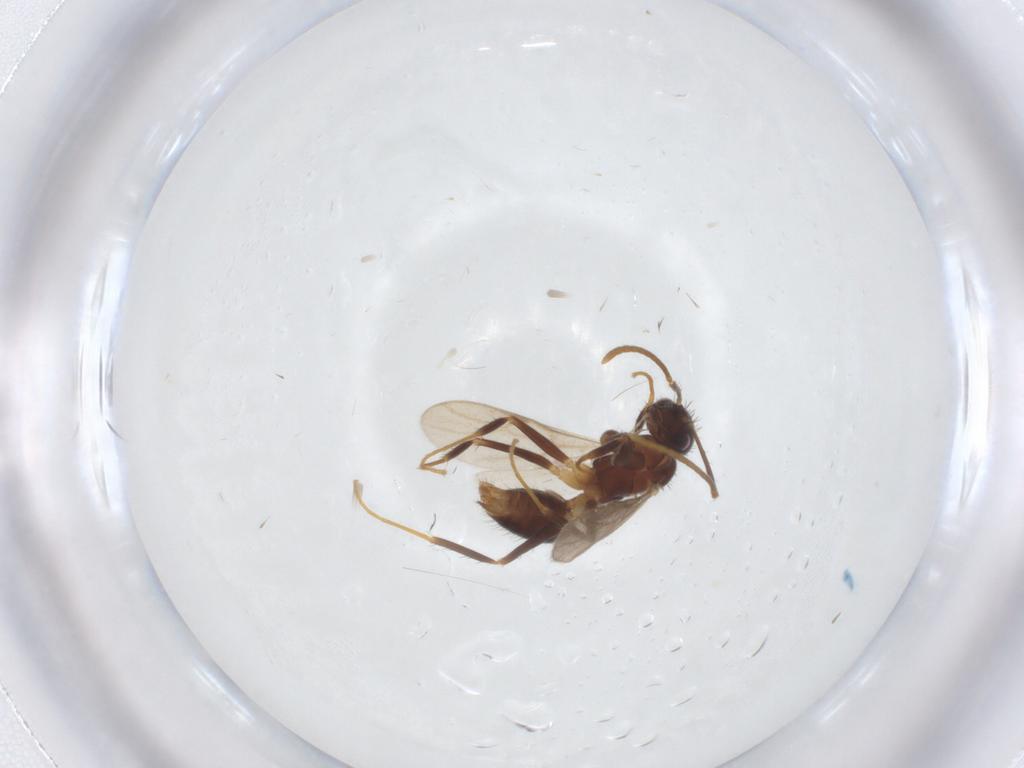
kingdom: Animalia
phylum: Arthropoda
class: Insecta
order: Hymenoptera
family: Formicidae
